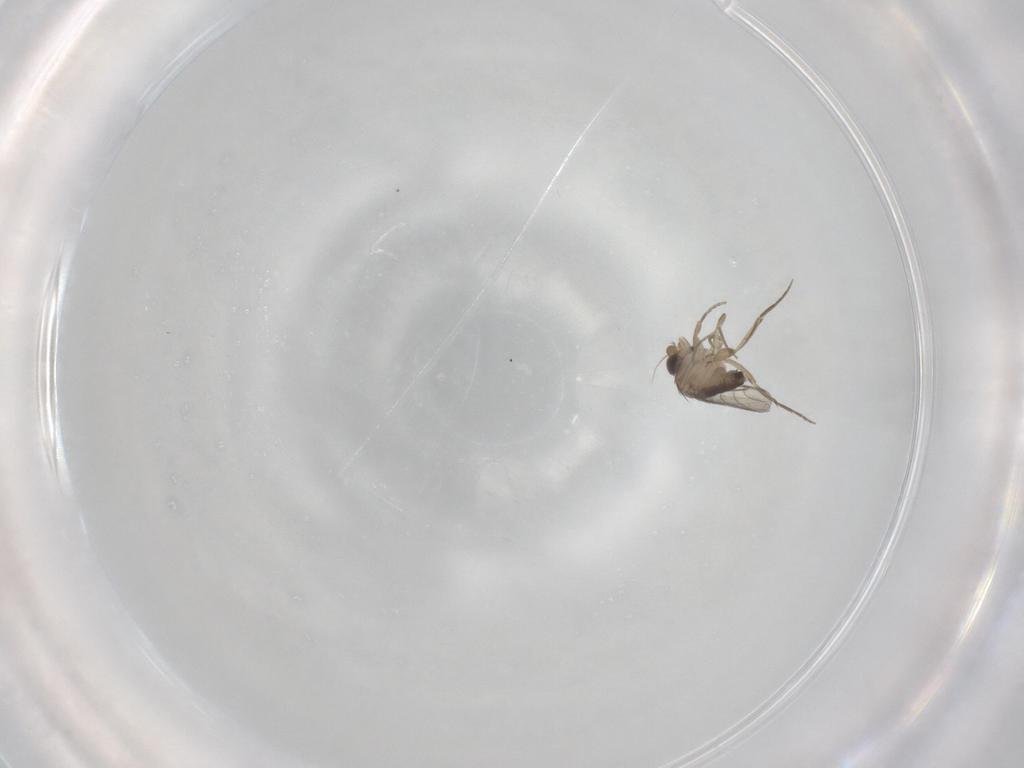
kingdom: Animalia
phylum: Arthropoda
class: Insecta
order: Diptera
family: Phoridae
